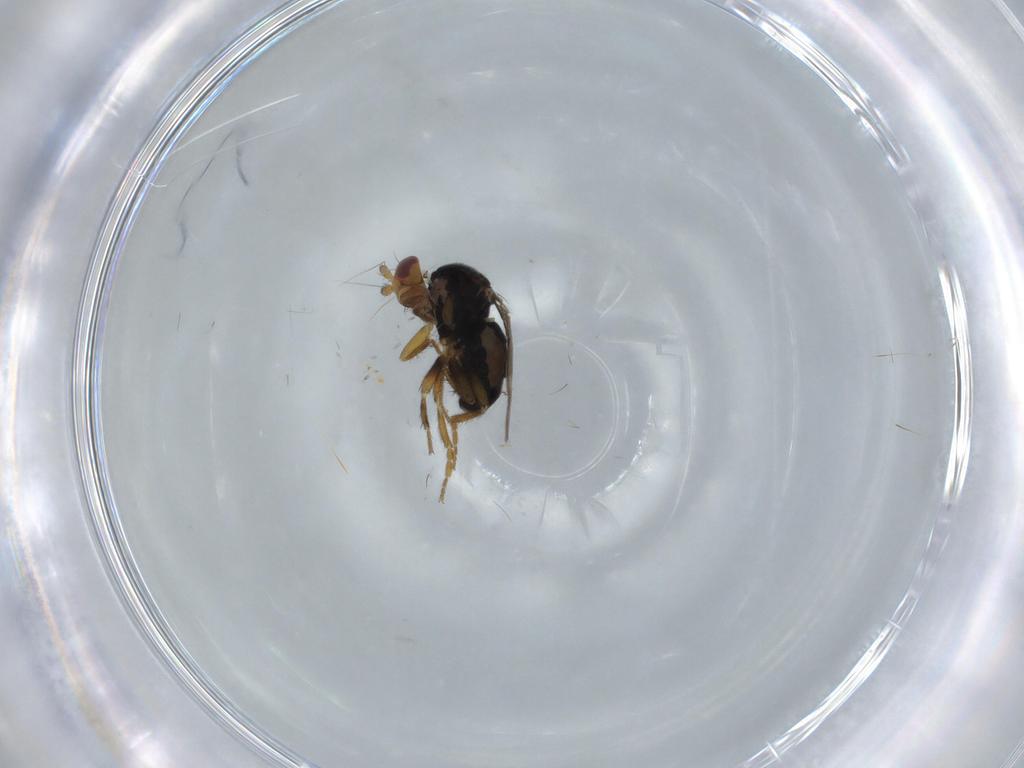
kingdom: Animalia
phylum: Arthropoda
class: Insecta
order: Diptera
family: Sphaeroceridae
